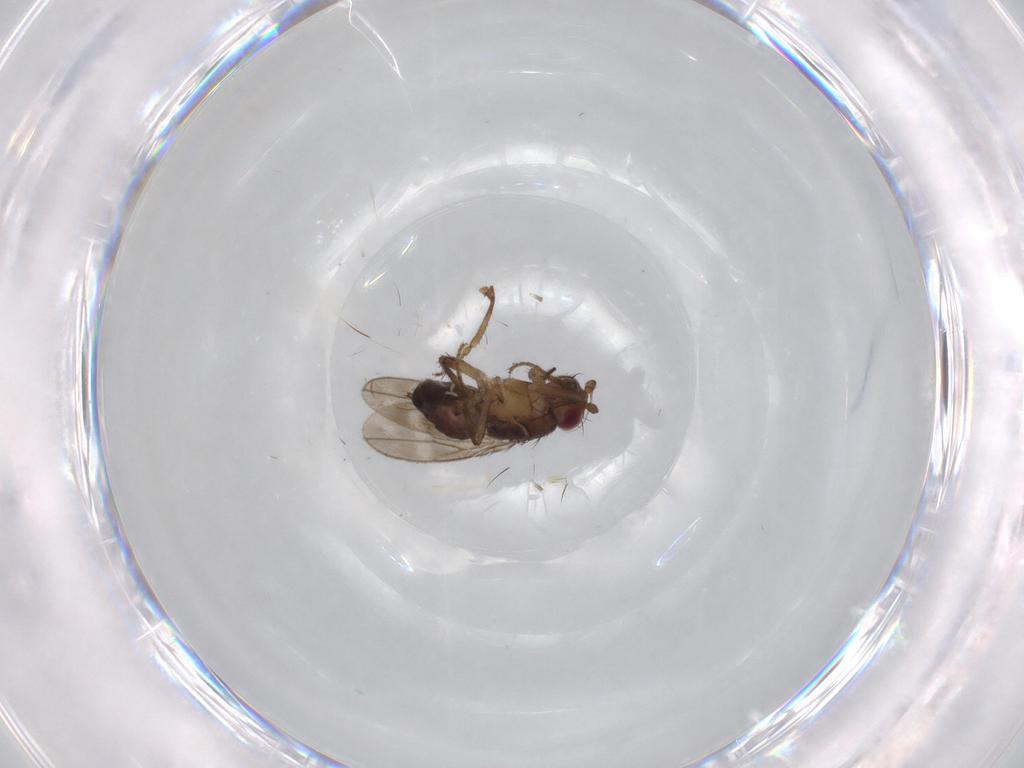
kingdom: Animalia
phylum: Arthropoda
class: Insecta
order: Diptera
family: Sphaeroceridae
